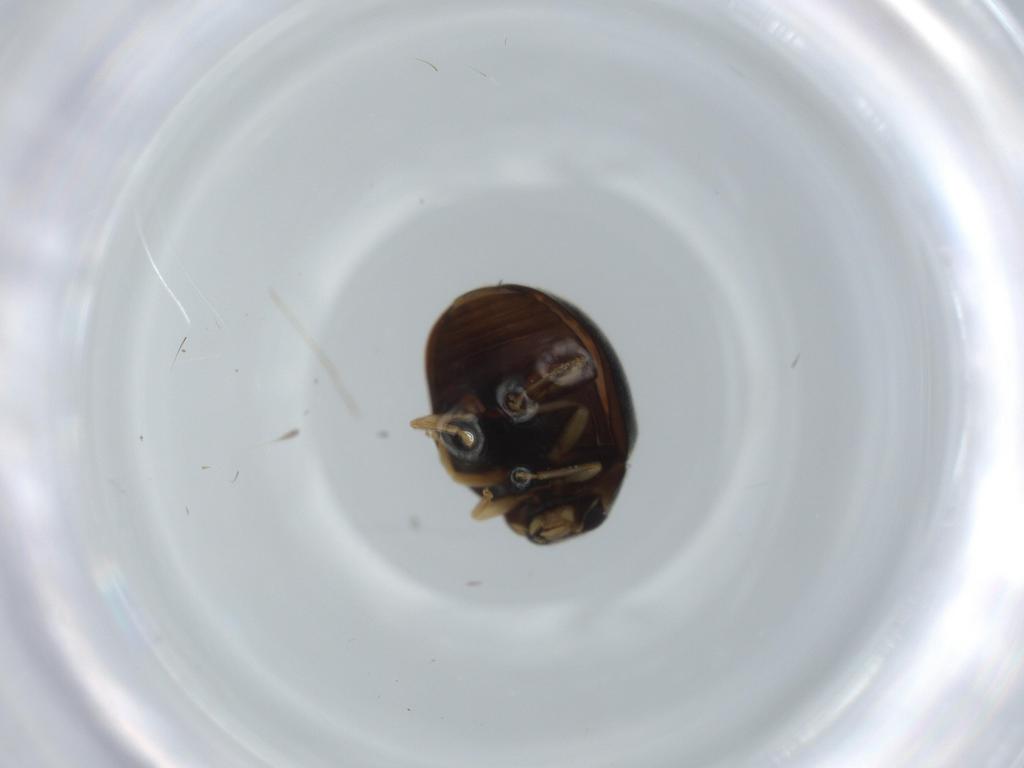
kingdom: Animalia
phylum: Arthropoda
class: Insecta
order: Coleoptera
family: Coccinellidae
